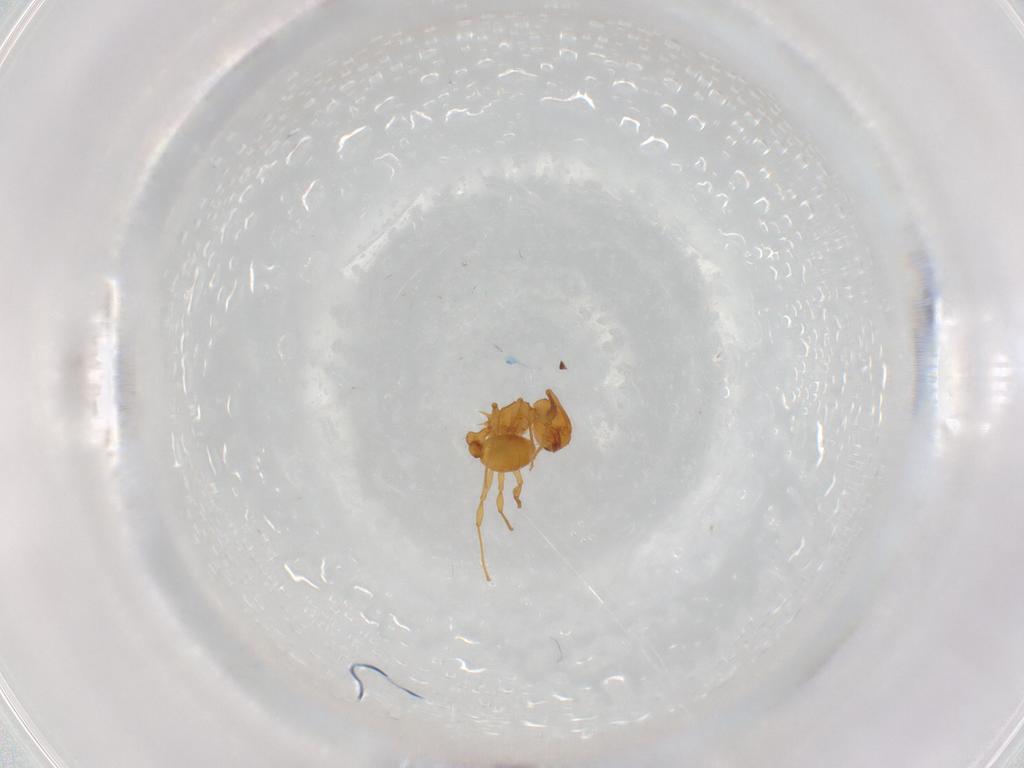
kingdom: Animalia
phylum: Arthropoda
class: Insecta
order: Hymenoptera
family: Formicidae
